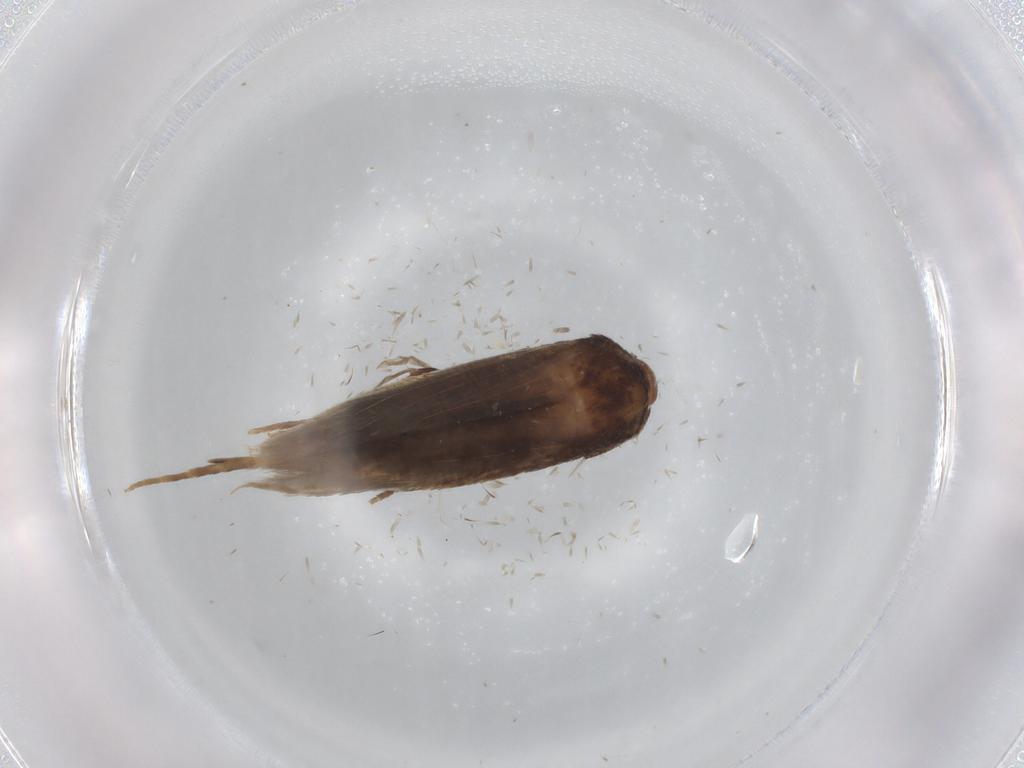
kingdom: Animalia
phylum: Arthropoda
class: Insecta
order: Lepidoptera
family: Cosmopterigidae
